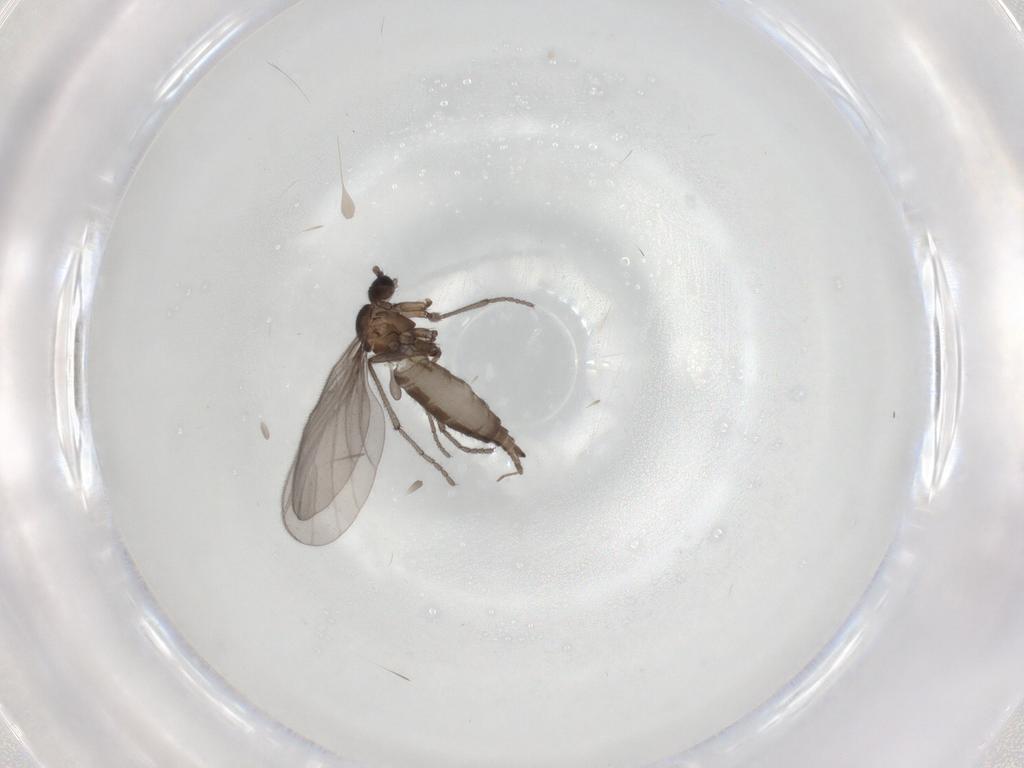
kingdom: Animalia
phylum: Arthropoda
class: Insecta
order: Diptera
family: Sciaridae
